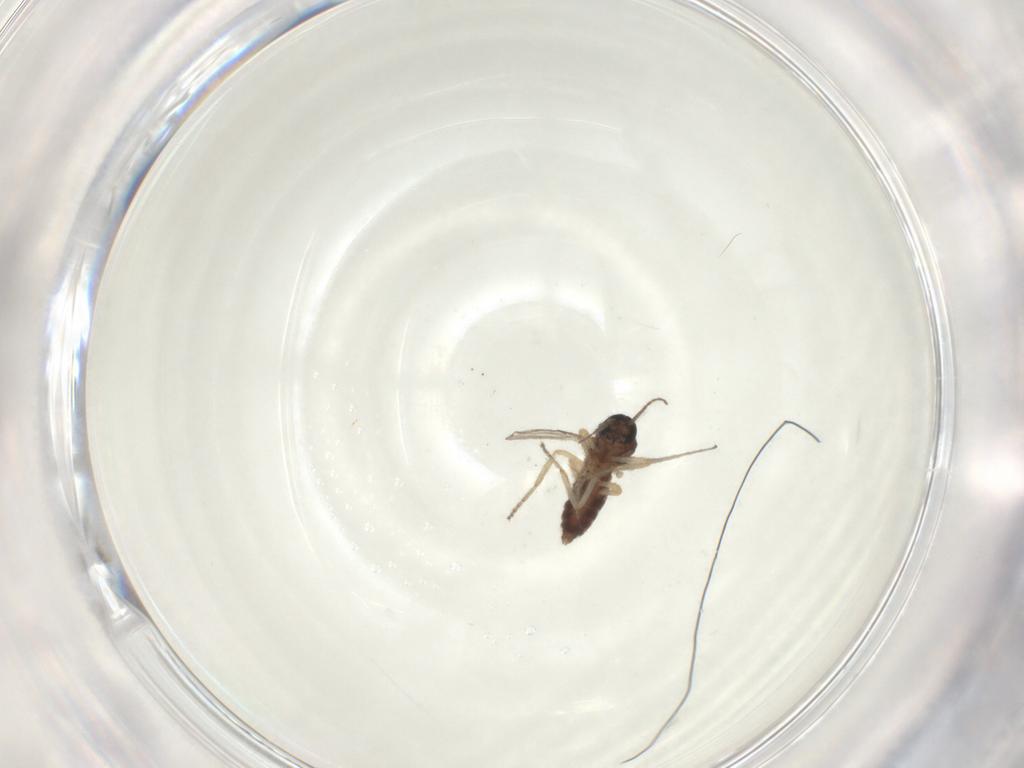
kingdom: Animalia
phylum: Arthropoda
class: Insecta
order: Diptera
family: Ceratopogonidae
